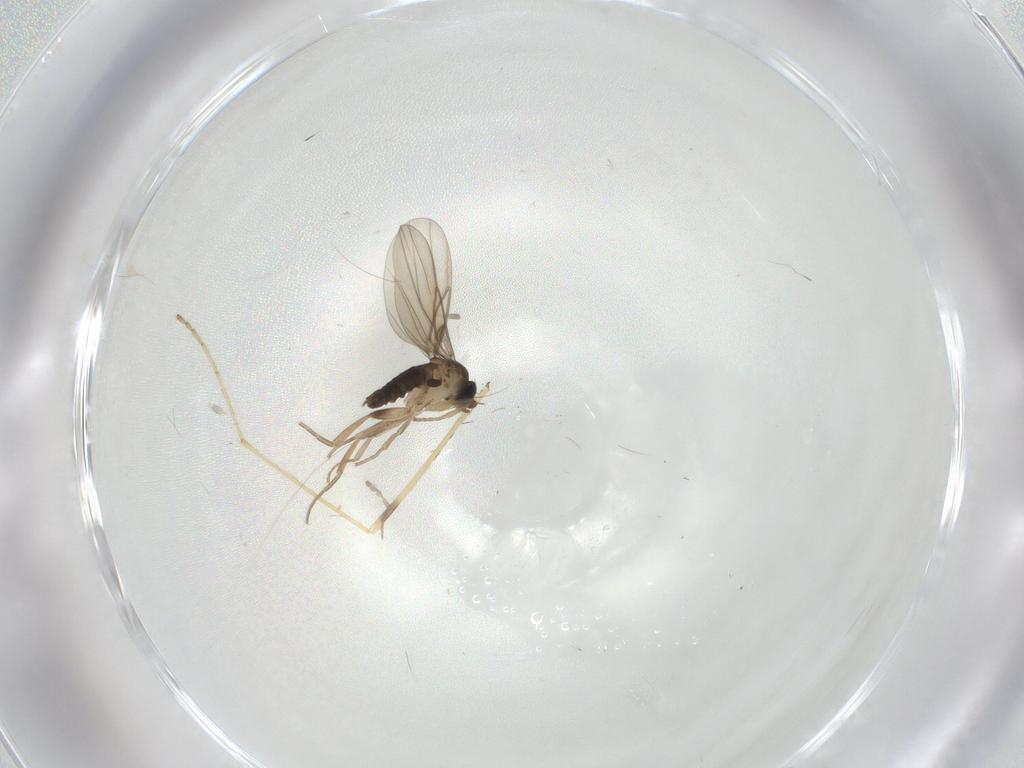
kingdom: Animalia
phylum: Arthropoda
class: Insecta
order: Diptera
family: Phoridae
